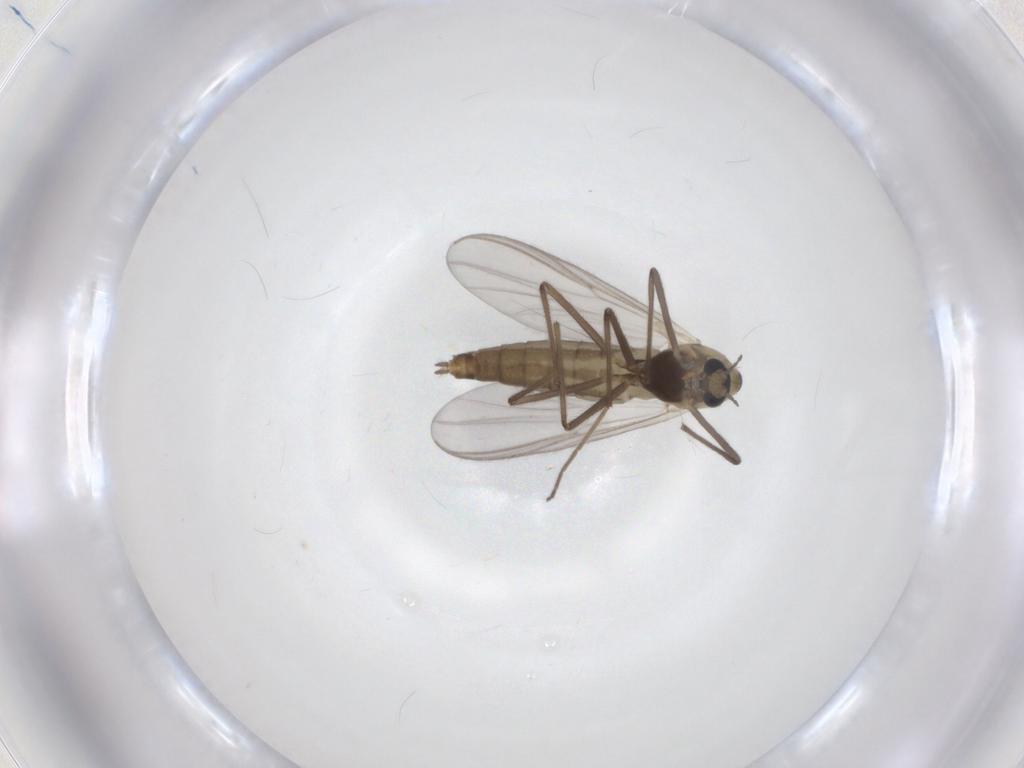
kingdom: Animalia
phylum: Arthropoda
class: Insecta
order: Diptera
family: Chironomidae
